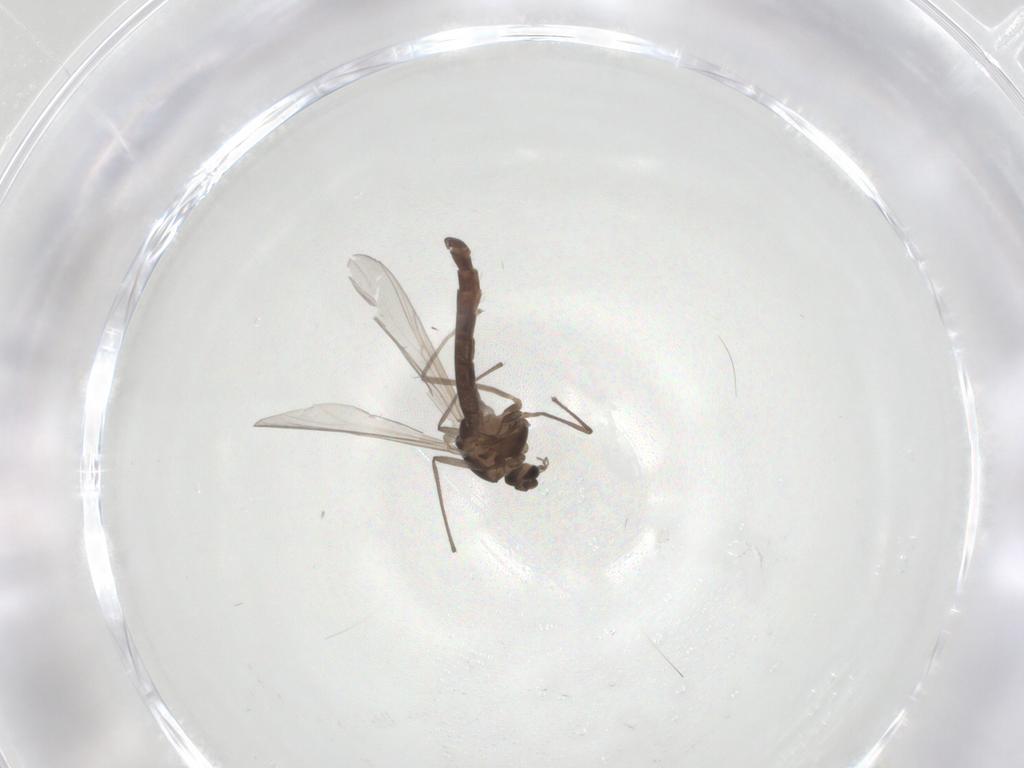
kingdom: Animalia
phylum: Arthropoda
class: Insecta
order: Diptera
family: Chironomidae
